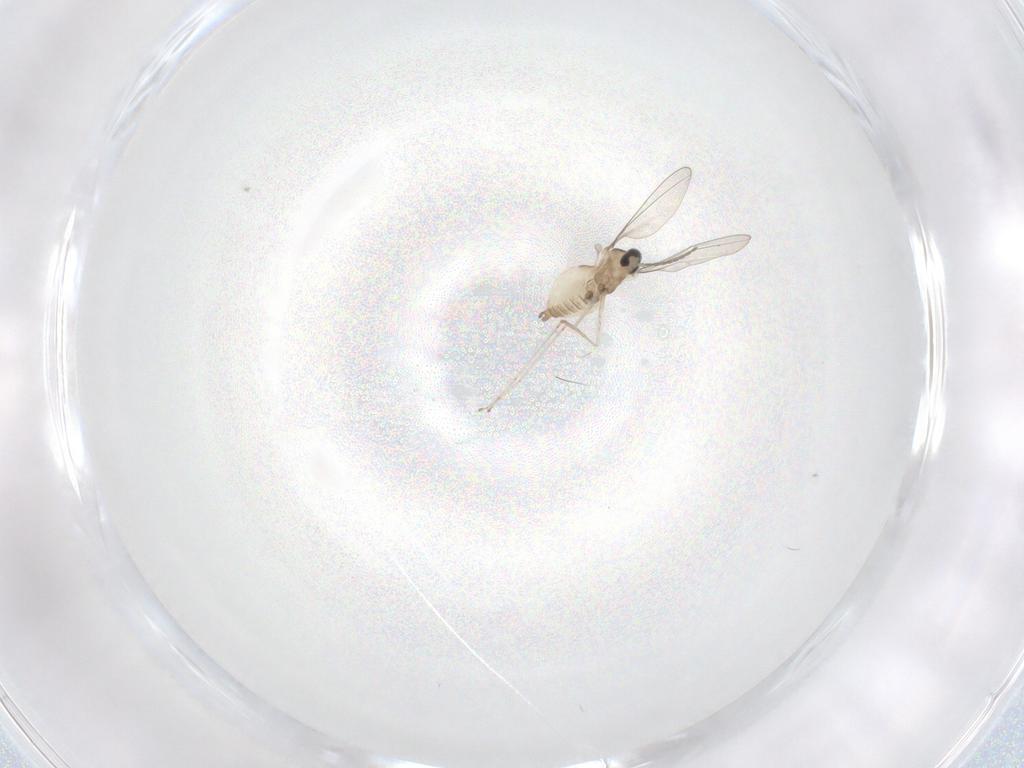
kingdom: Animalia
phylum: Arthropoda
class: Insecta
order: Diptera
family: Cecidomyiidae
